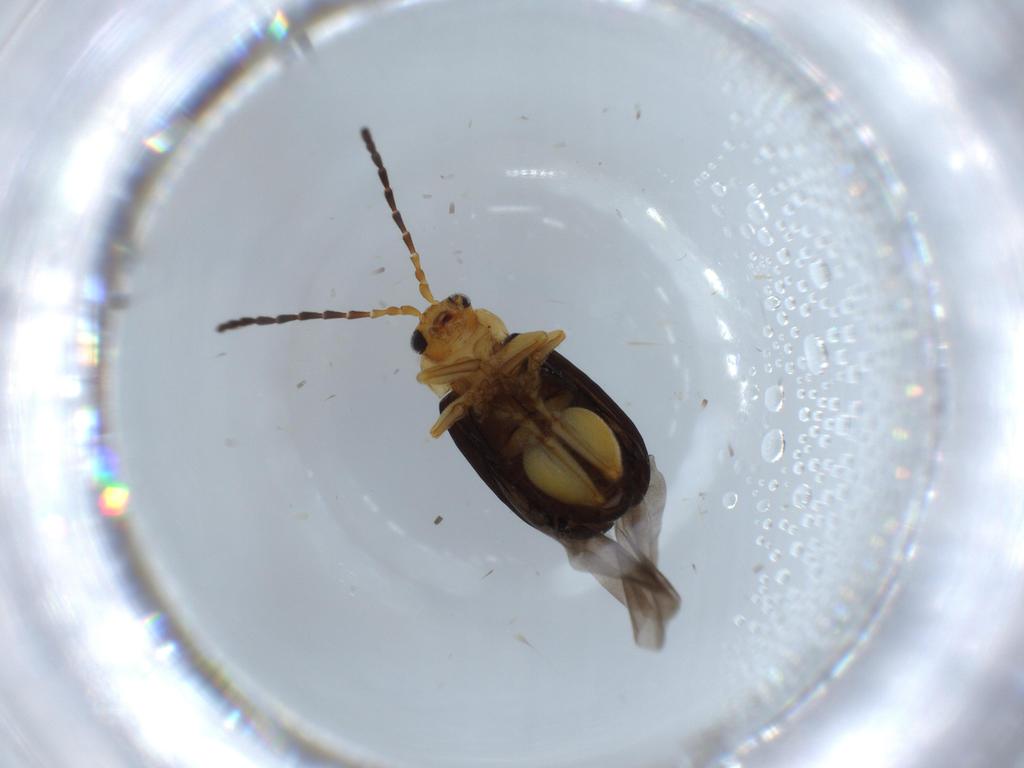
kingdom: Animalia
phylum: Arthropoda
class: Insecta
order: Coleoptera
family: Chrysomelidae
